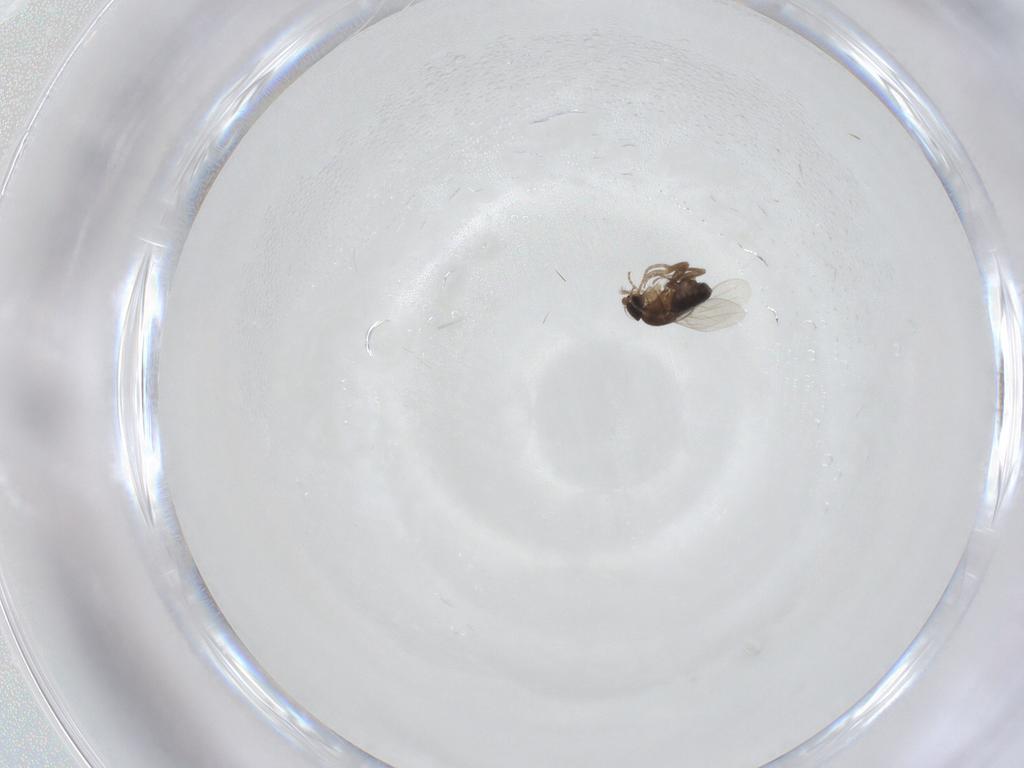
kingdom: Animalia
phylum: Arthropoda
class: Insecta
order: Diptera
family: Phoridae
